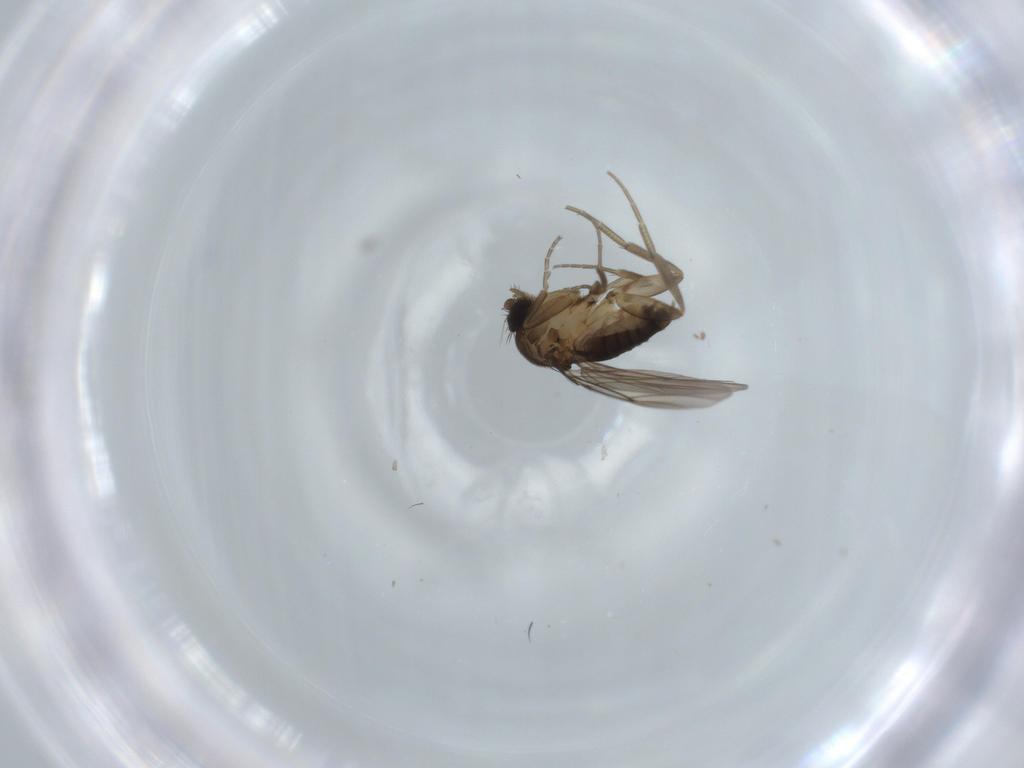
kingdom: Animalia
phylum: Arthropoda
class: Insecta
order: Diptera
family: Phoridae
